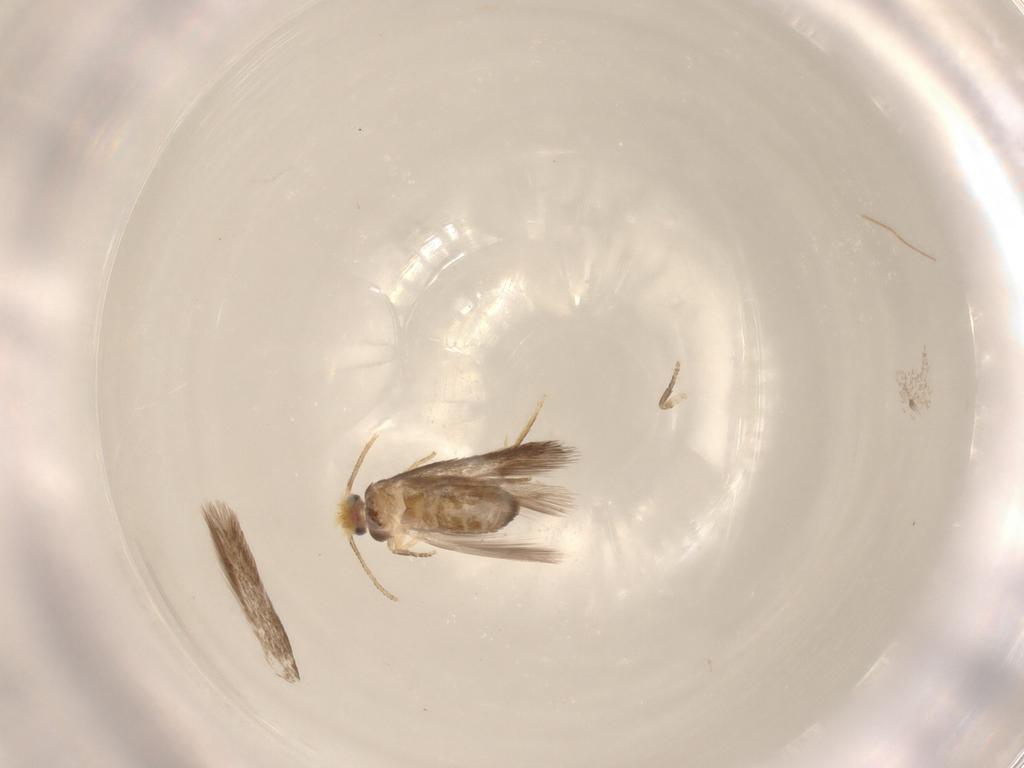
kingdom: Animalia
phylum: Arthropoda
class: Insecta
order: Lepidoptera
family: Nepticulidae
